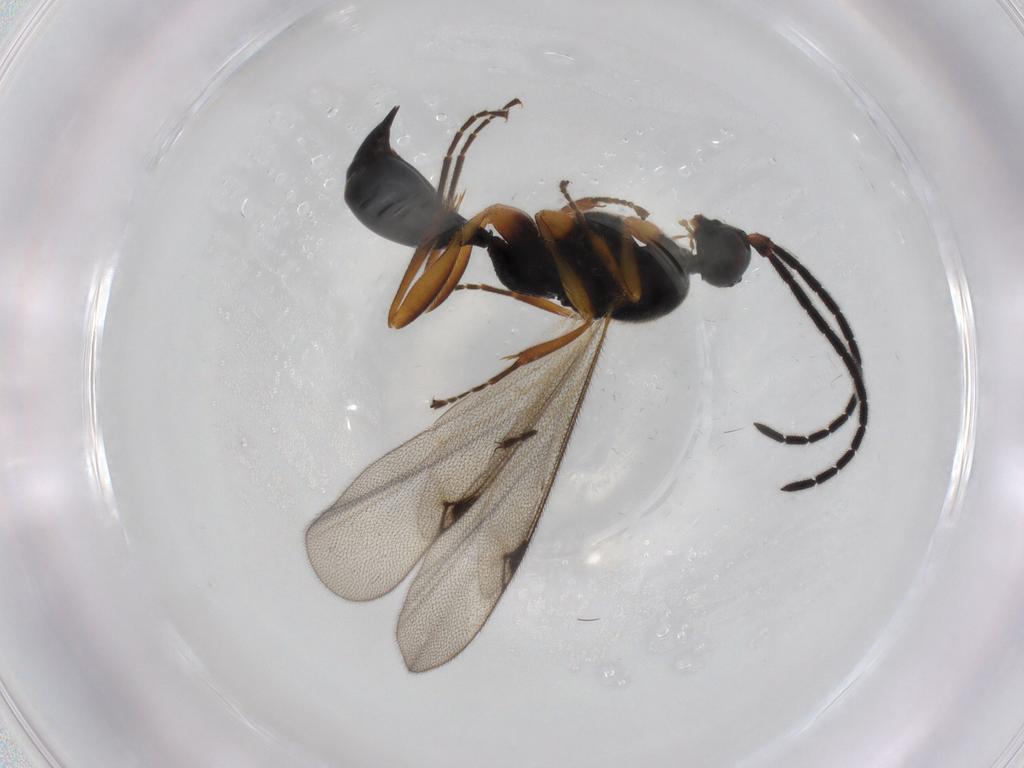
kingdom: Animalia
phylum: Arthropoda
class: Insecta
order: Hymenoptera
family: Proctotrupidae
